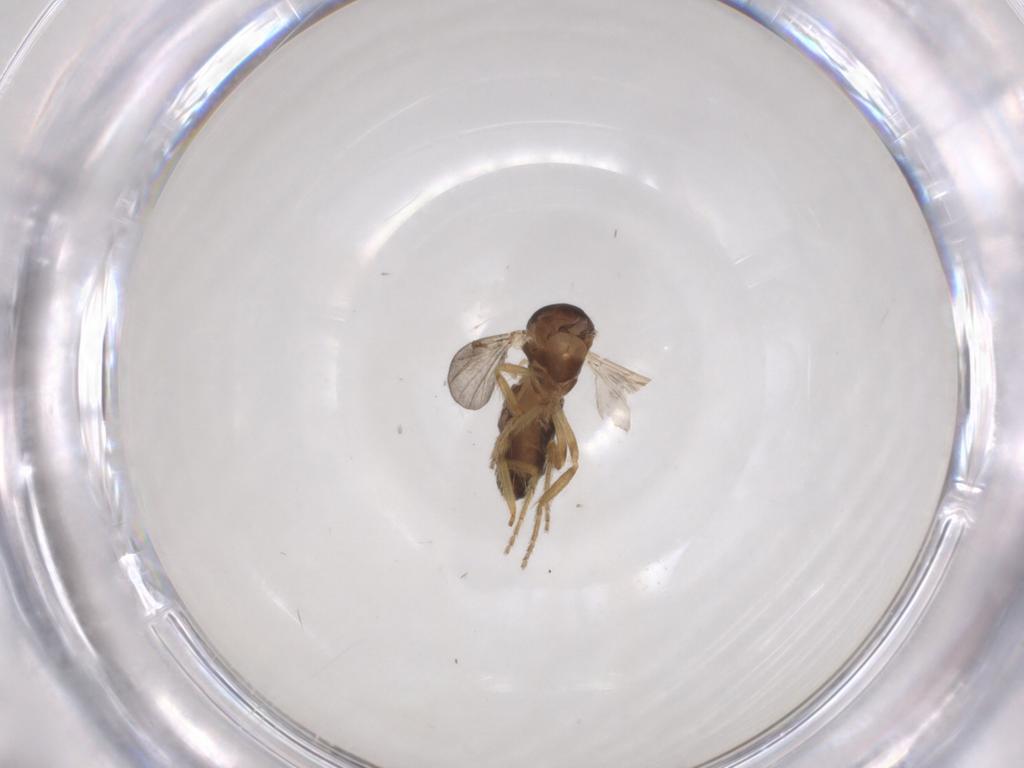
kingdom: Animalia
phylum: Arthropoda
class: Insecta
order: Diptera
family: Ceratopogonidae
